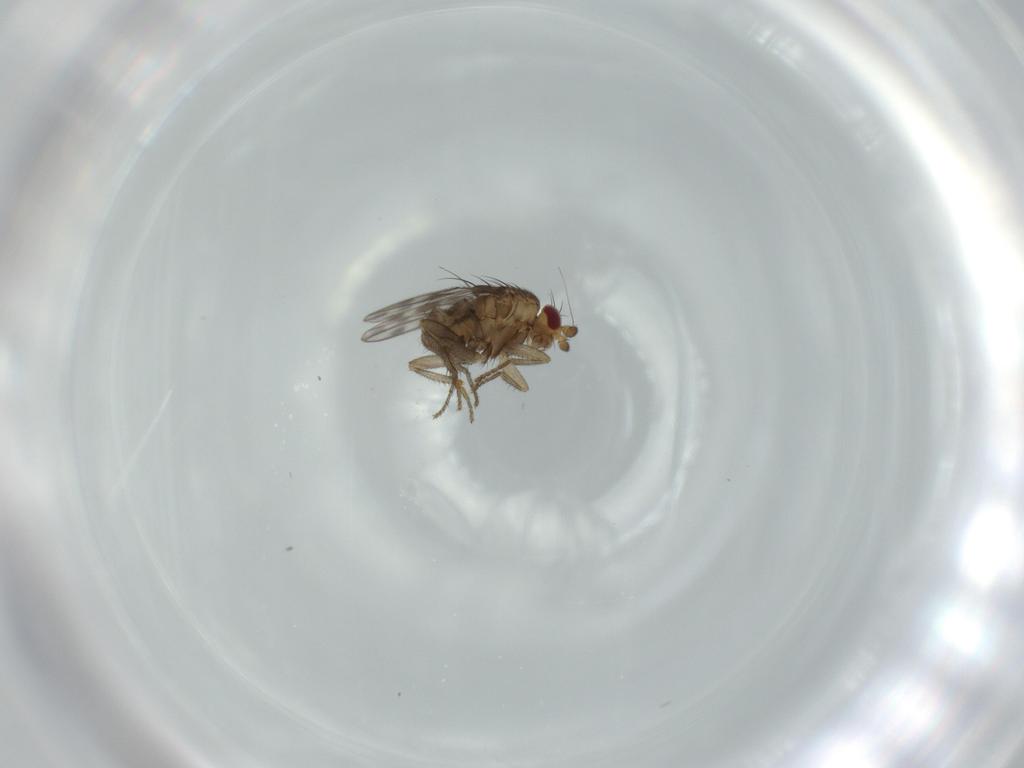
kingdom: Animalia
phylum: Arthropoda
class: Insecta
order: Diptera
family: Sphaeroceridae
